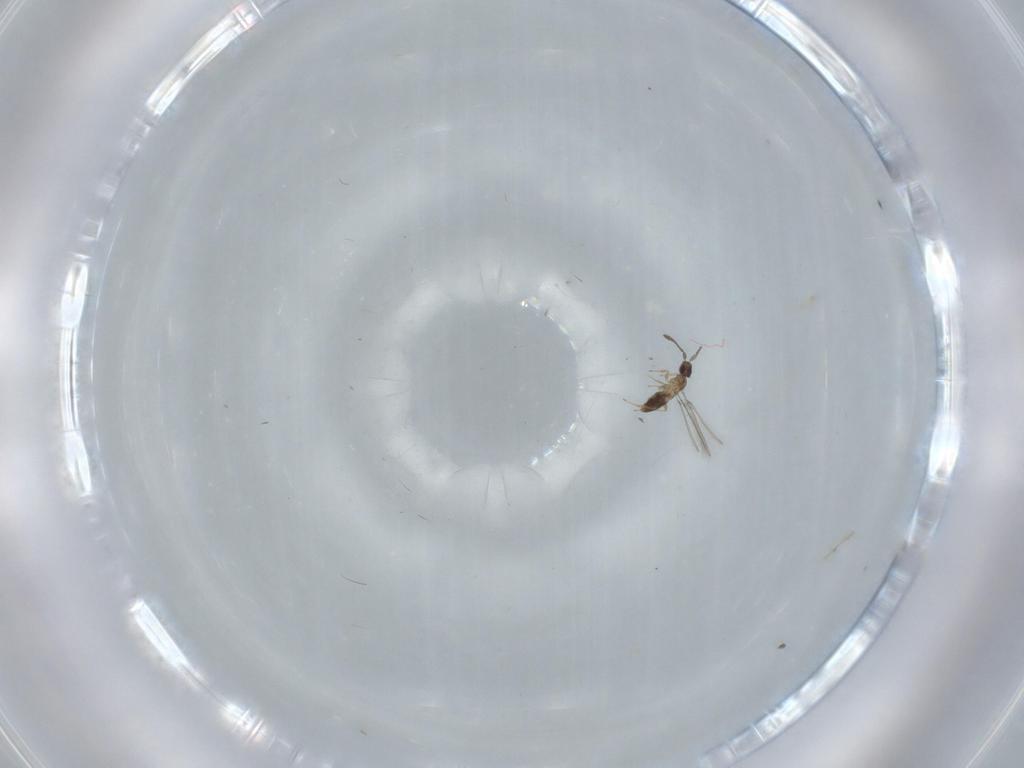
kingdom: Animalia
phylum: Arthropoda
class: Insecta
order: Hymenoptera
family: Mymaridae
